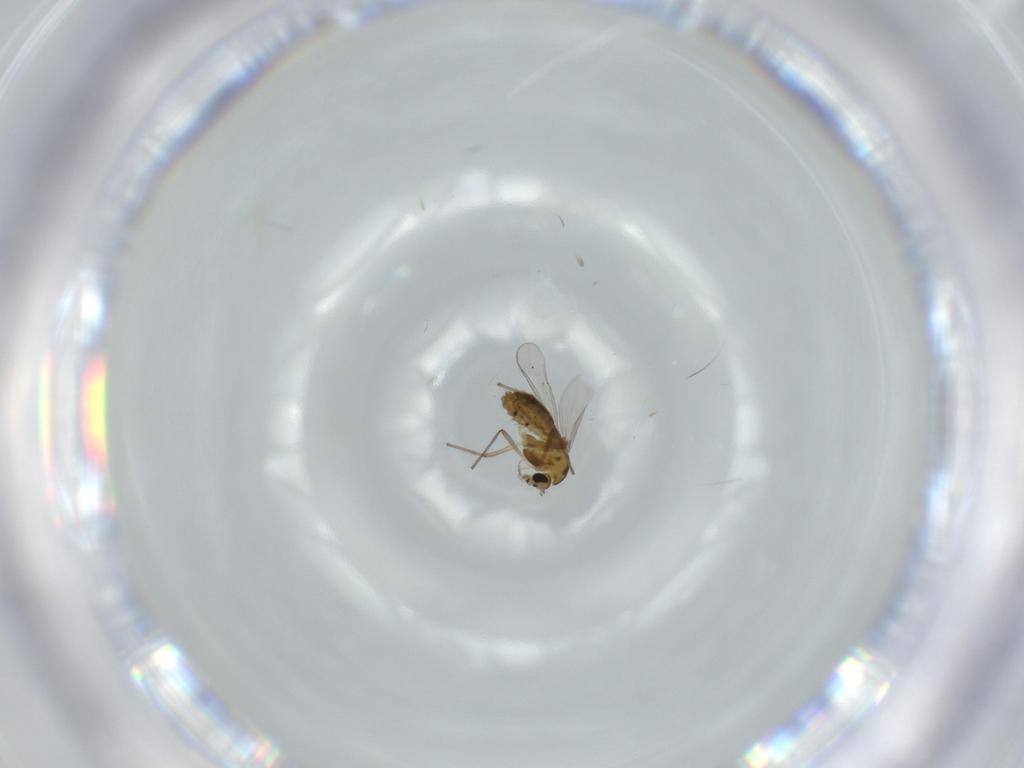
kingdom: Animalia
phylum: Arthropoda
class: Insecta
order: Diptera
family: Chironomidae
